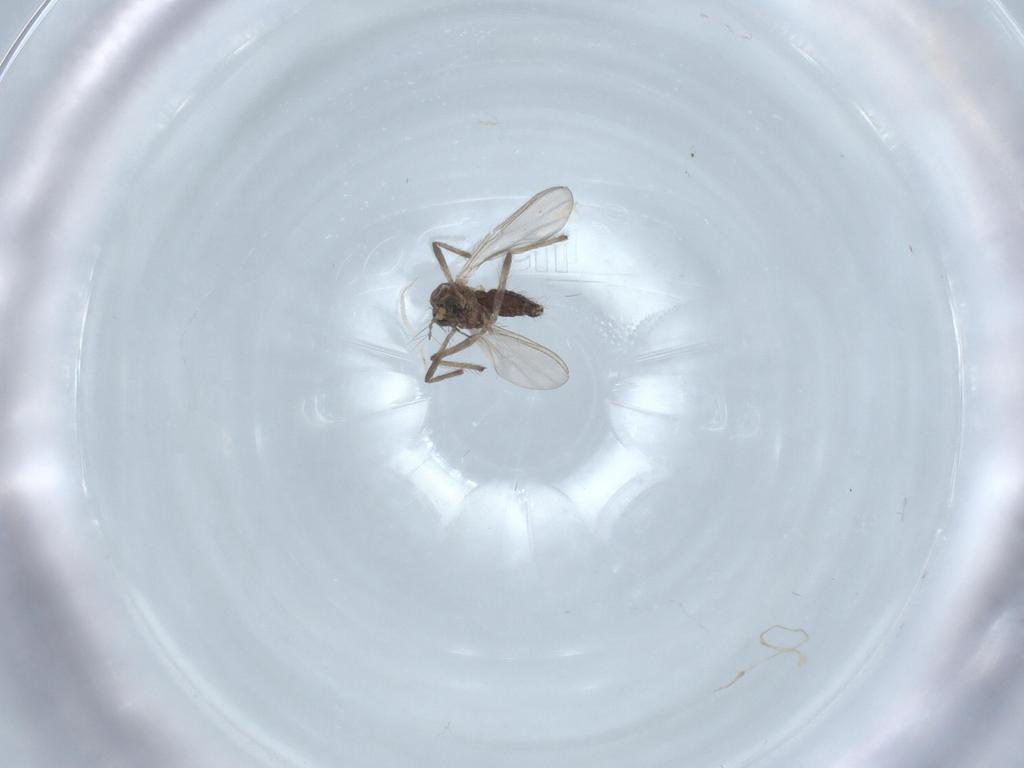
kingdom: Animalia
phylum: Arthropoda
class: Insecta
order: Diptera
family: Chironomidae
